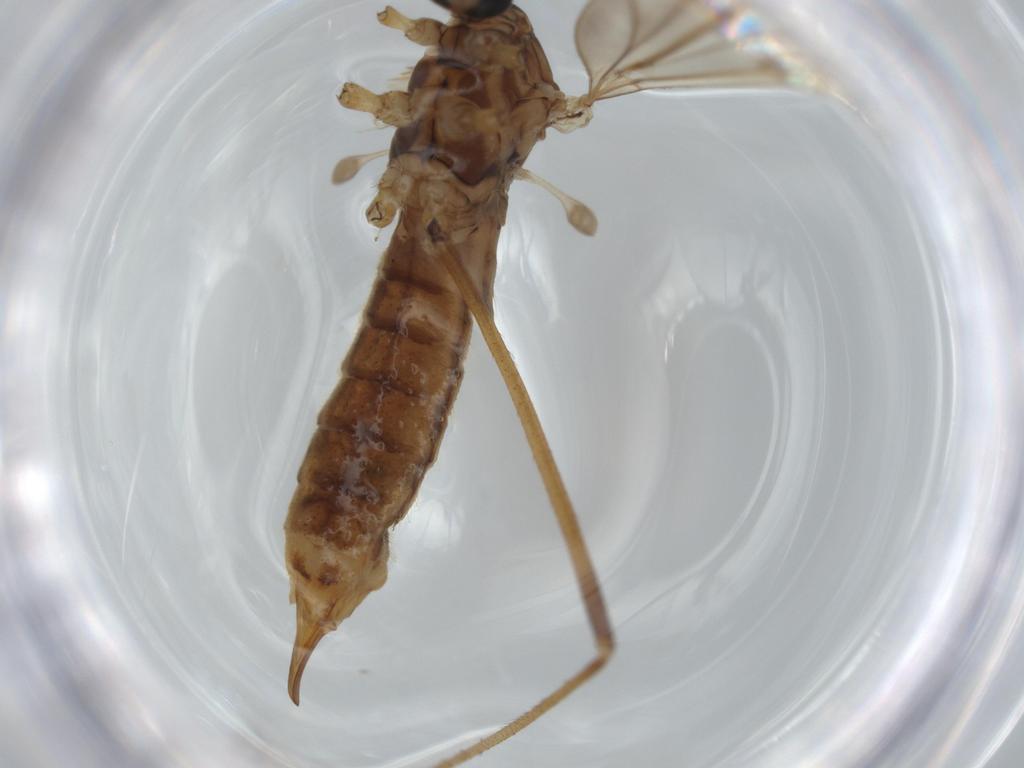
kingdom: Animalia
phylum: Arthropoda
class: Insecta
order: Diptera
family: Psychodidae
